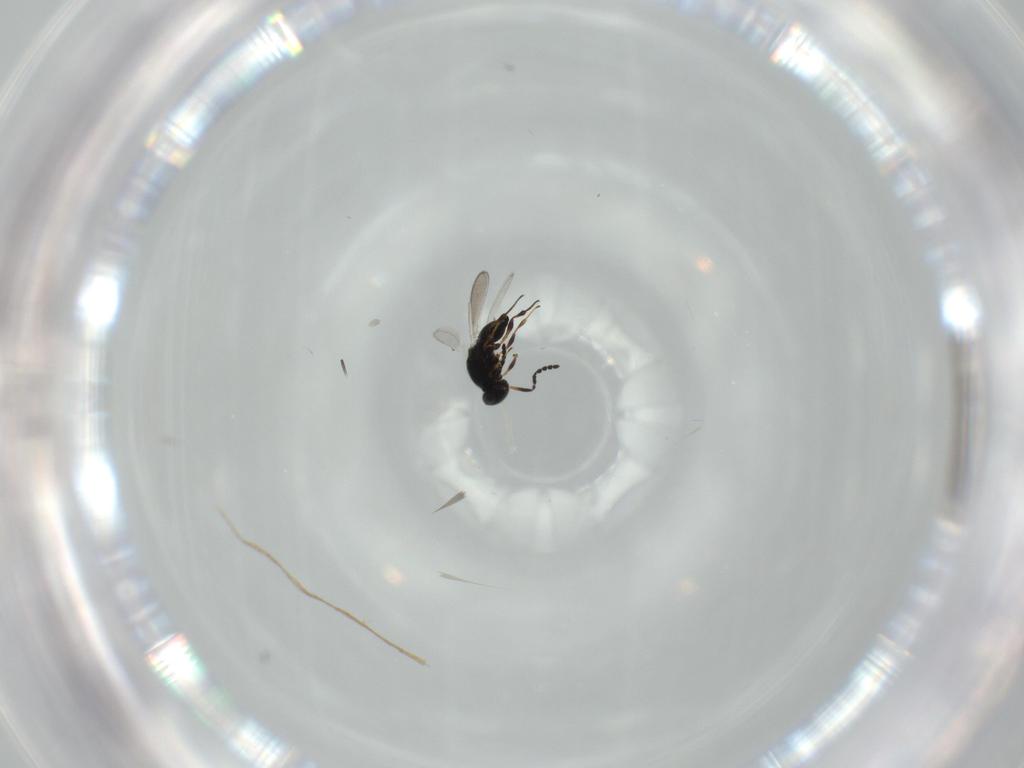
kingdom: Animalia
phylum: Arthropoda
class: Insecta
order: Hymenoptera
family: Platygastridae
